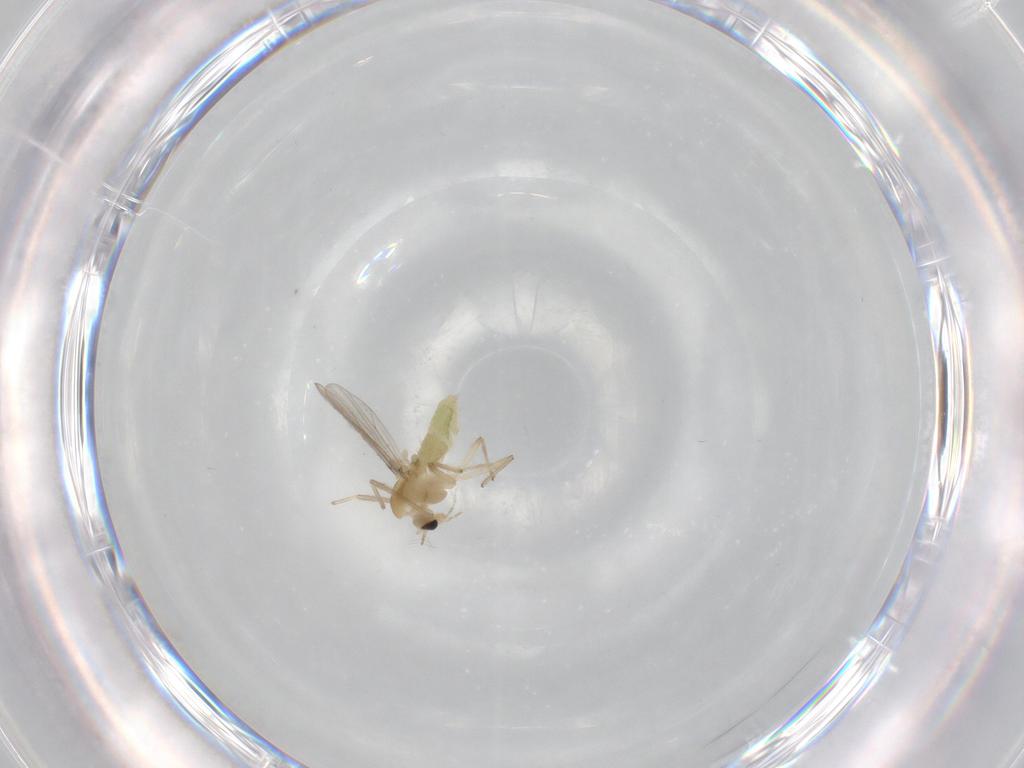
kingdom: Animalia
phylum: Arthropoda
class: Insecta
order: Diptera
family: Chironomidae
